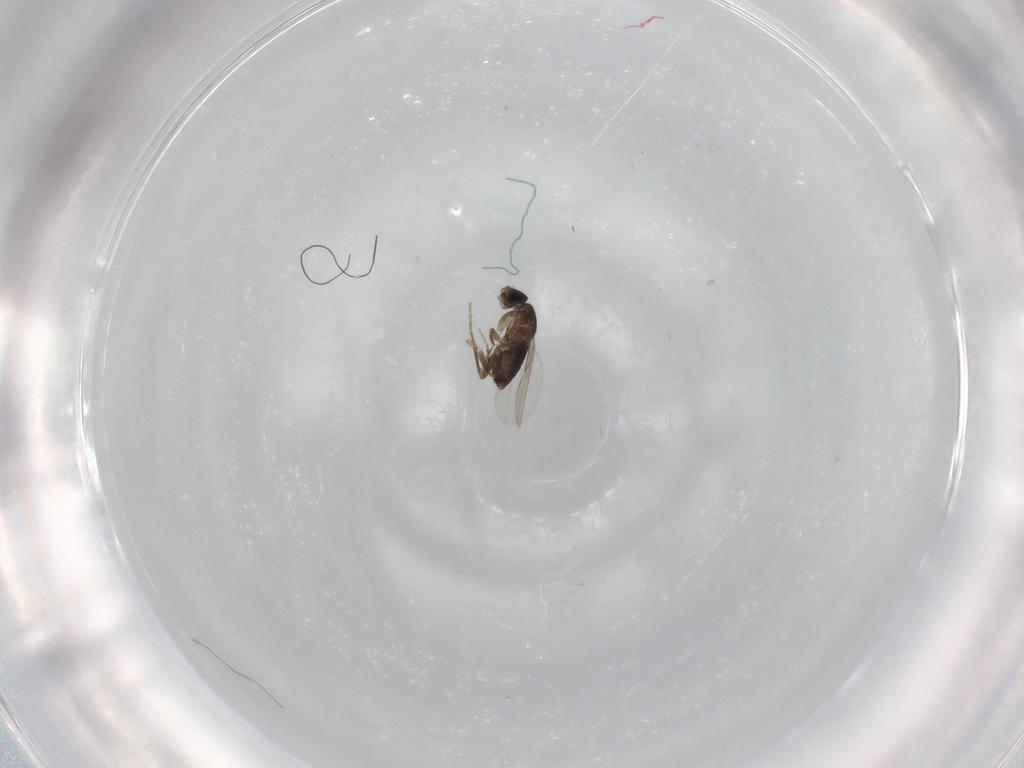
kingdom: Animalia
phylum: Arthropoda
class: Insecta
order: Diptera
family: Phoridae
